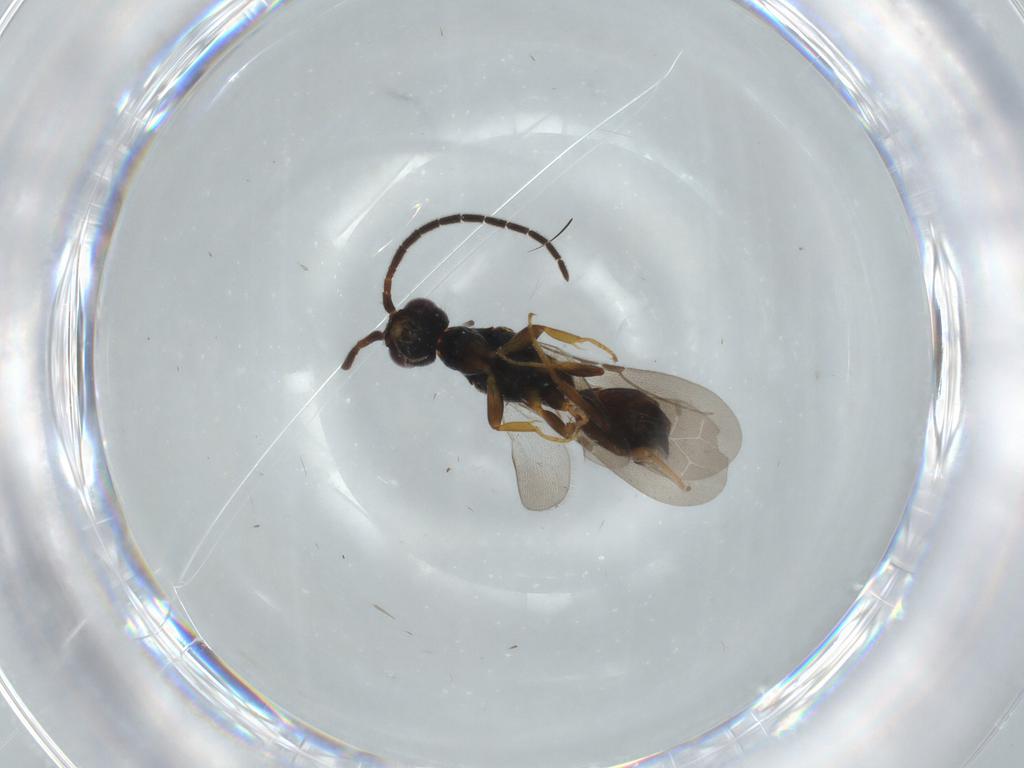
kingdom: Animalia
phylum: Arthropoda
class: Insecta
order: Hymenoptera
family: Bethylidae
